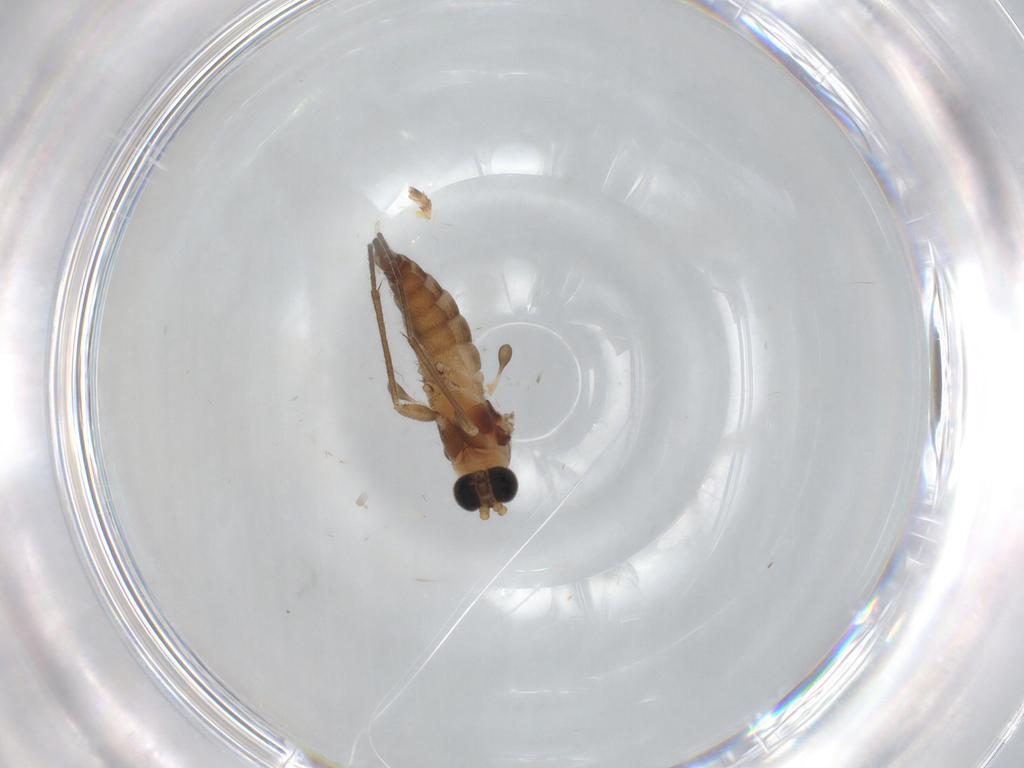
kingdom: Animalia
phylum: Arthropoda
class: Insecta
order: Diptera
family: Sciaridae
